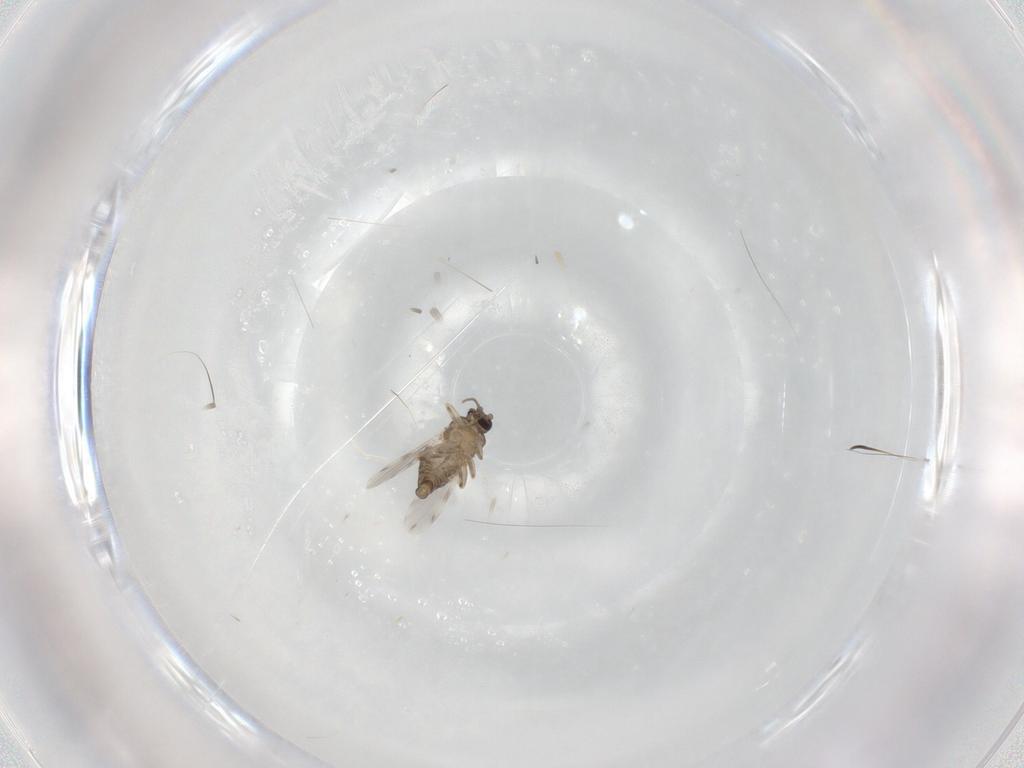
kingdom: Animalia
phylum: Arthropoda
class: Insecta
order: Diptera
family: Ceratopogonidae
